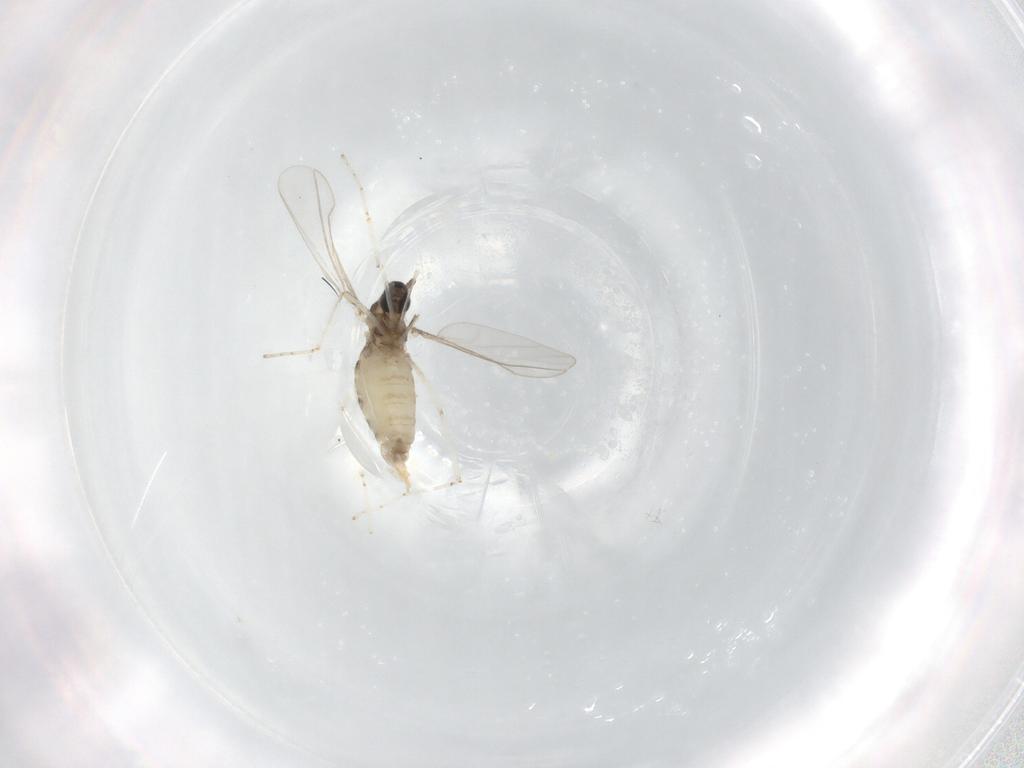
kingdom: Animalia
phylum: Arthropoda
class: Insecta
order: Diptera
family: Cecidomyiidae
